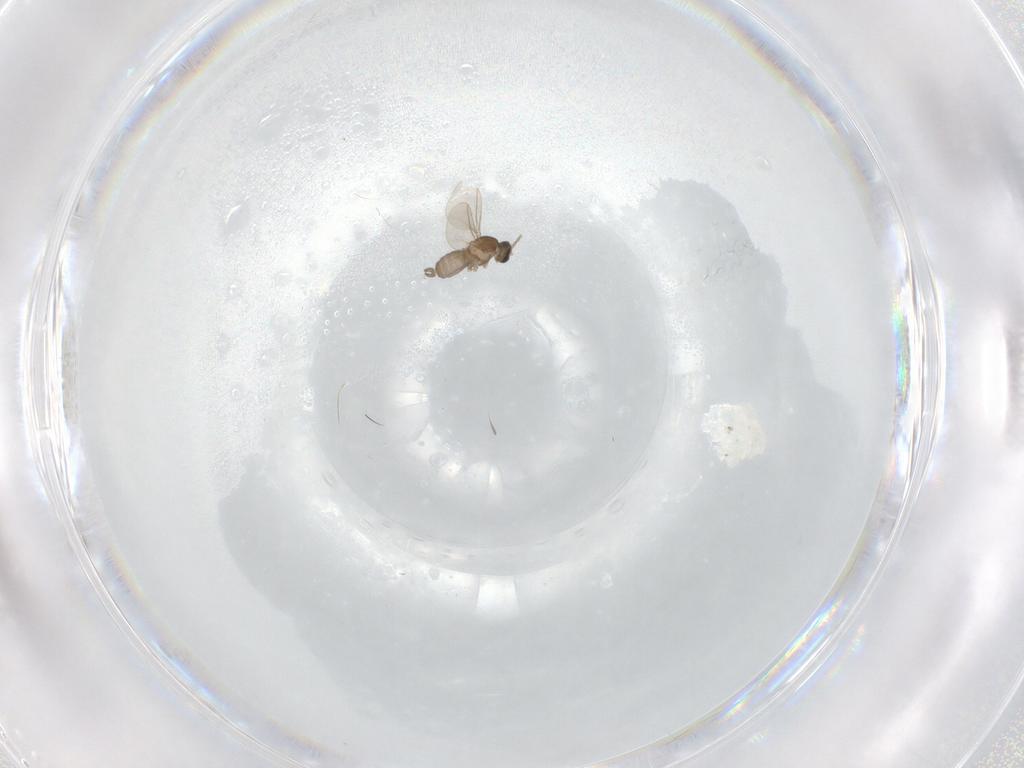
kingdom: Animalia
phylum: Arthropoda
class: Insecta
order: Diptera
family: Cecidomyiidae
